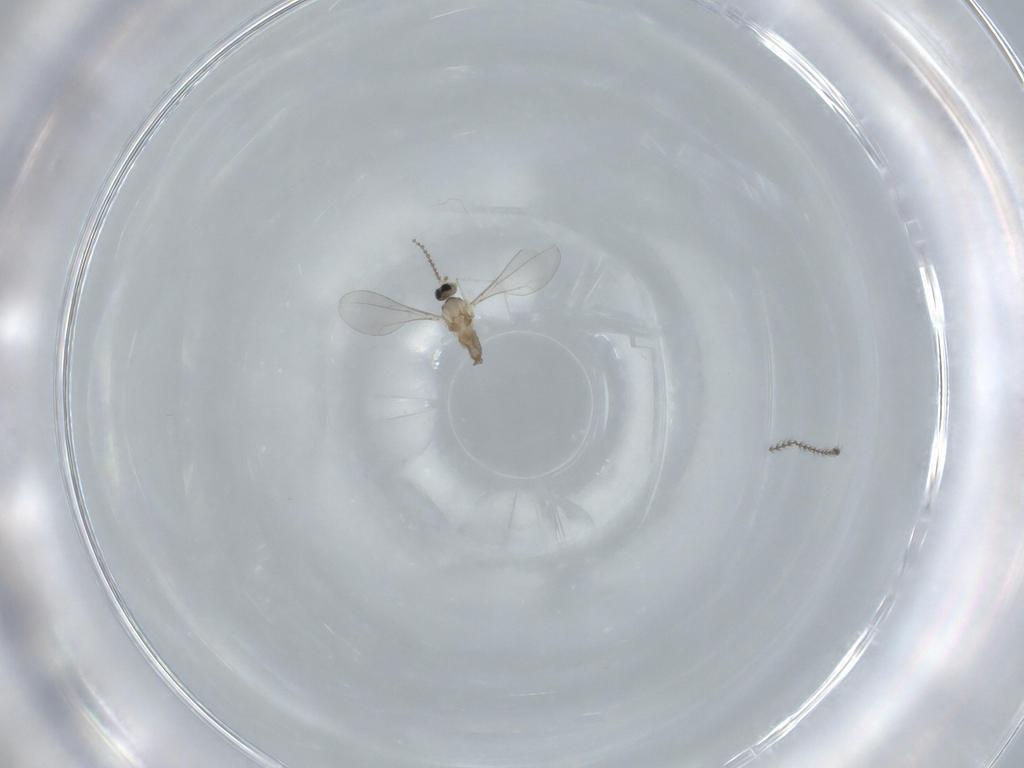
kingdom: Animalia
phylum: Arthropoda
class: Insecta
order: Diptera
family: Cecidomyiidae
